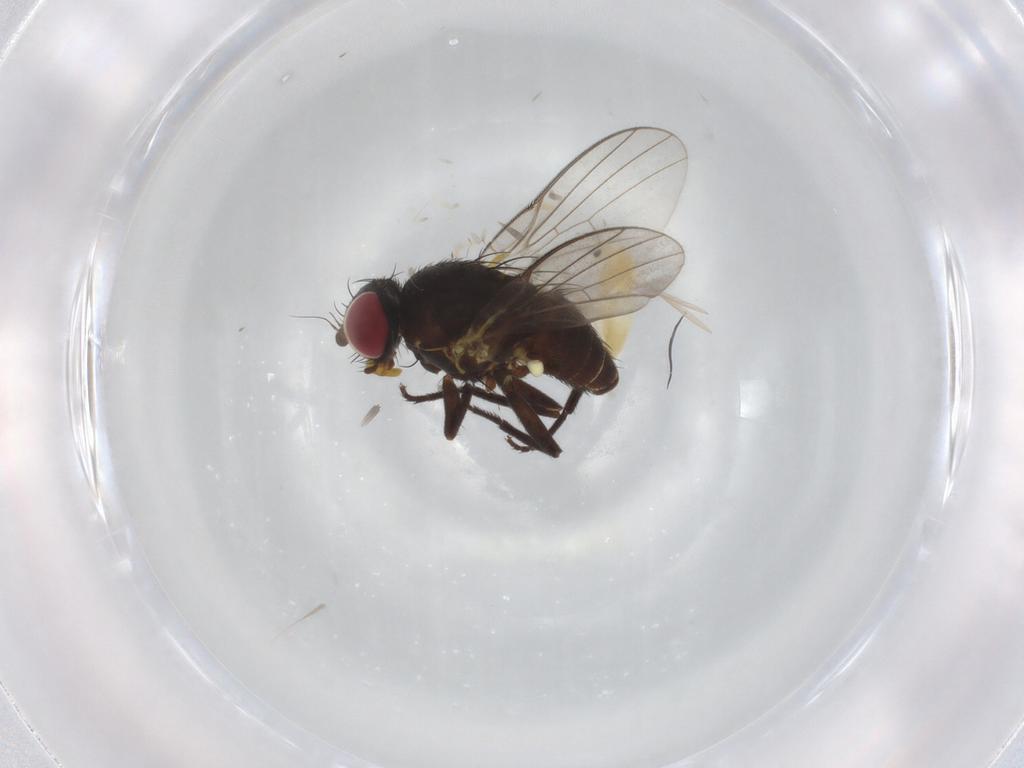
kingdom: Animalia
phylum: Arthropoda
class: Insecta
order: Diptera
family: Chironomidae
